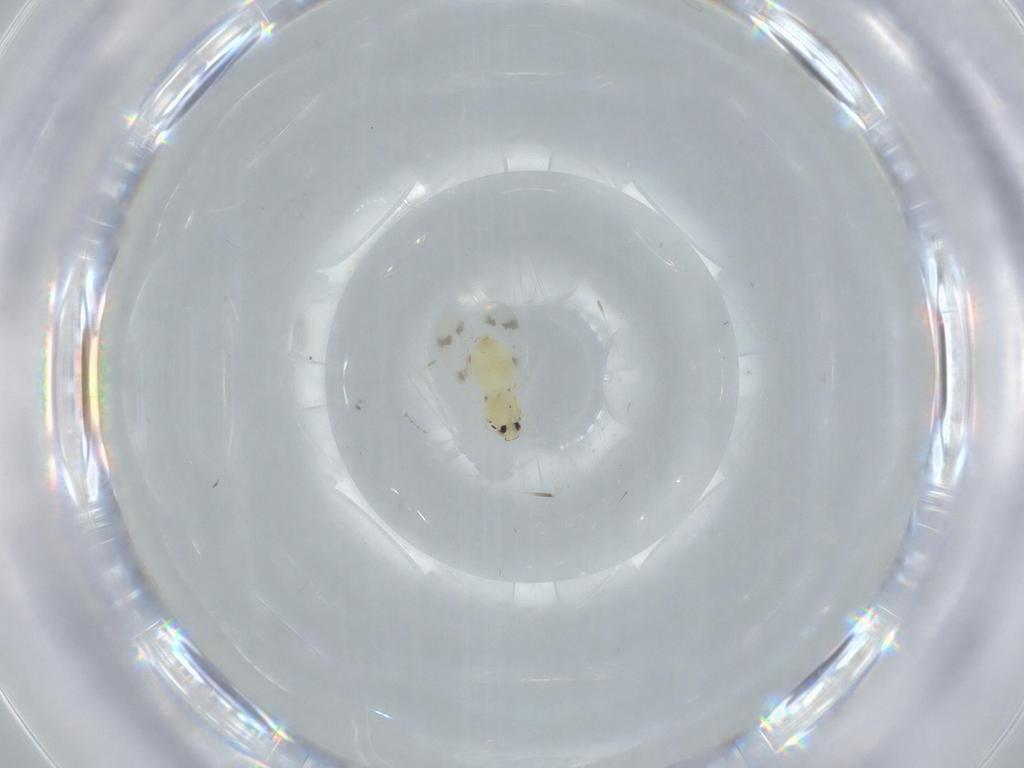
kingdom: Animalia
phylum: Arthropoda
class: Insecta
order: Hemiptera
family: Aleyrodidae
